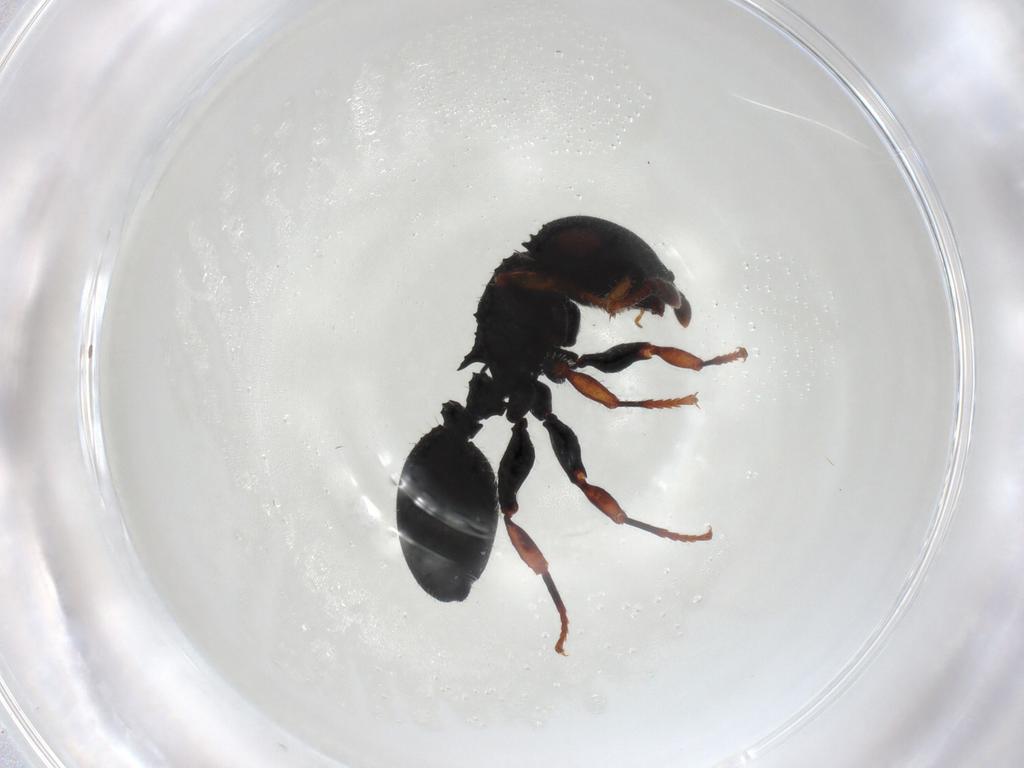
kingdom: Animalia
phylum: Arthropoda
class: Insecta
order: Hymenoptera
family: Formicidae
